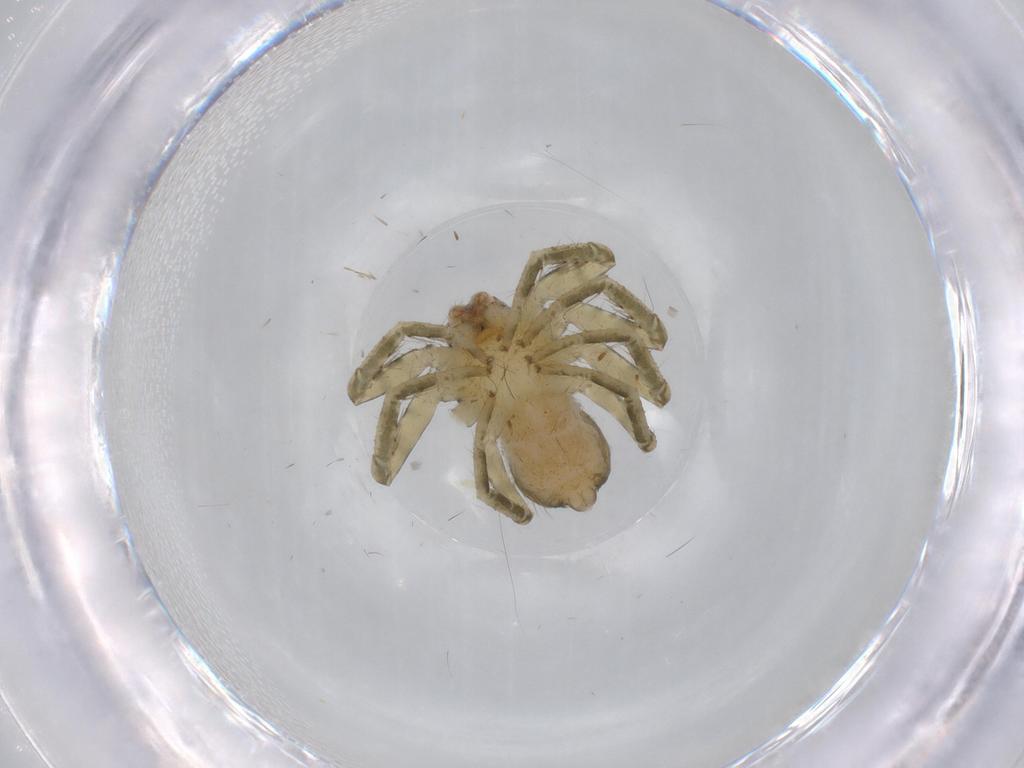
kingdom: Animalia
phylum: Arthropoda
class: Arachnida
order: Araneae
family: Selenopidae
